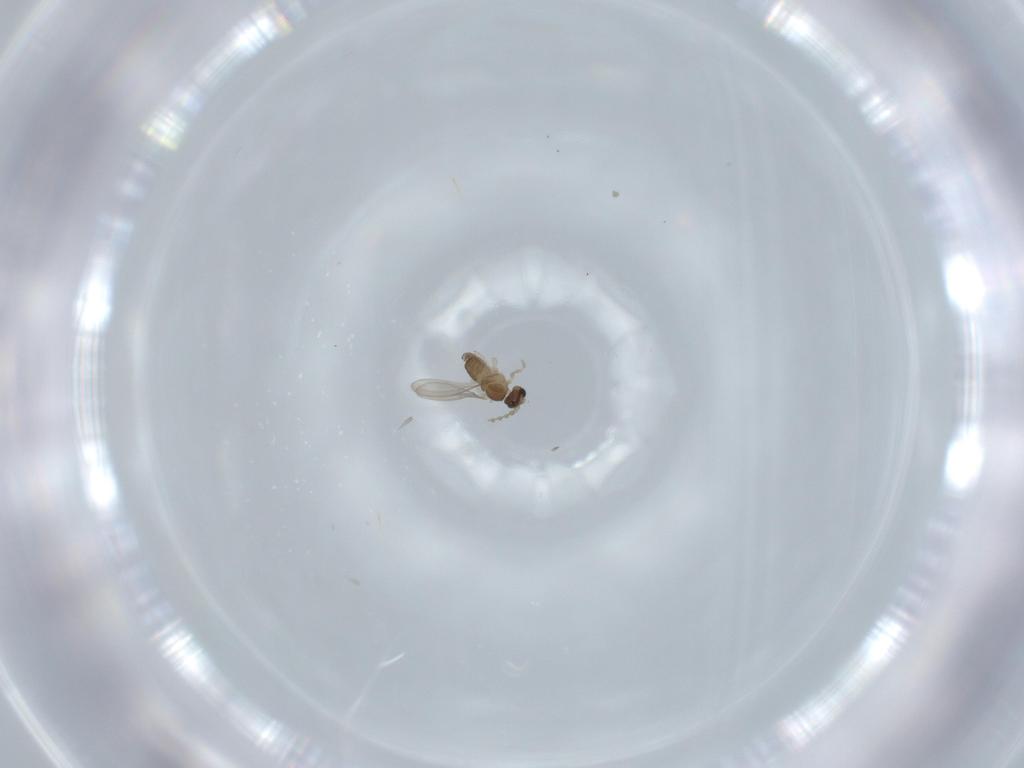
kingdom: Animalia
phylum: Arthropoda
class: Insecta
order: Diptera
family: Cecidomyiidae
